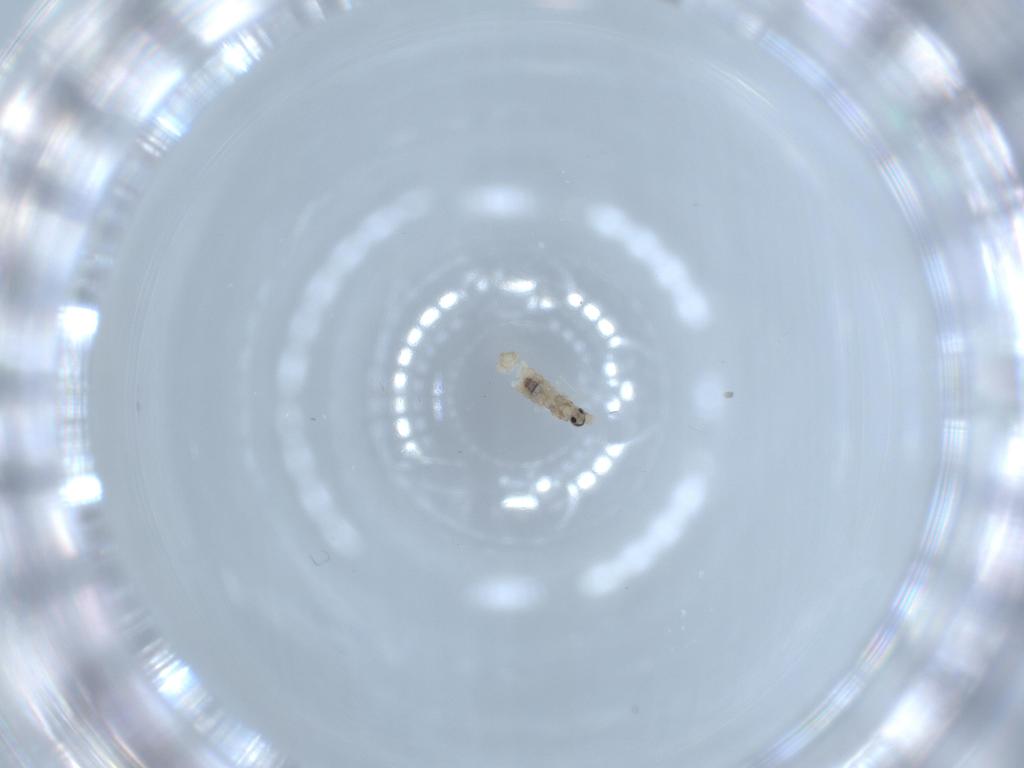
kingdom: Animalia
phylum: Arthropoda
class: Insecta
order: Diptera
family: Cecidomyiidae
